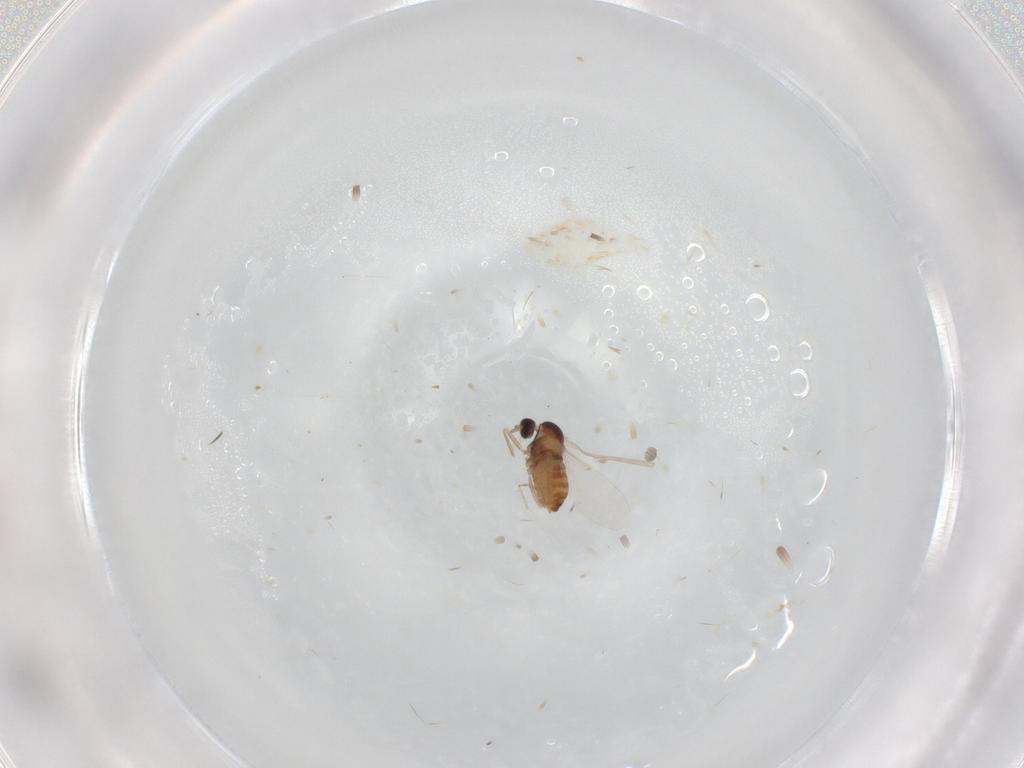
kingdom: Animalia
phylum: Arthropoda
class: Insecta
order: Diptera
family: Cecidomyiidae
